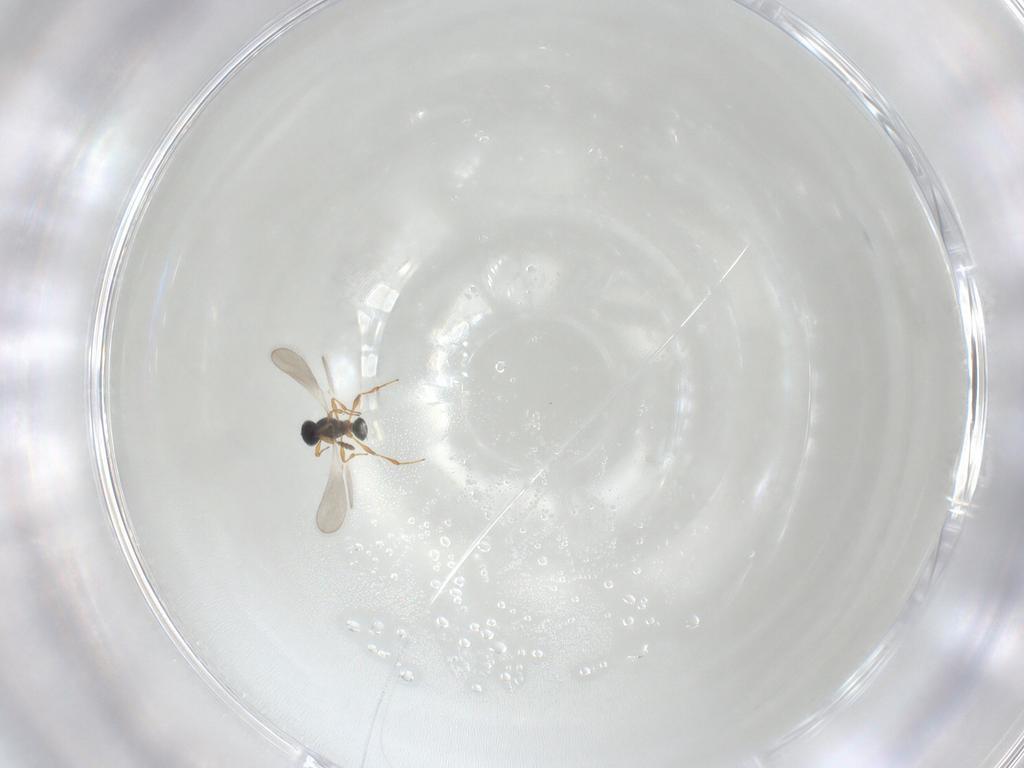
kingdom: Animalia
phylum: Arthropoda
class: Insecta
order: Hymenoptera
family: Platygastridae
